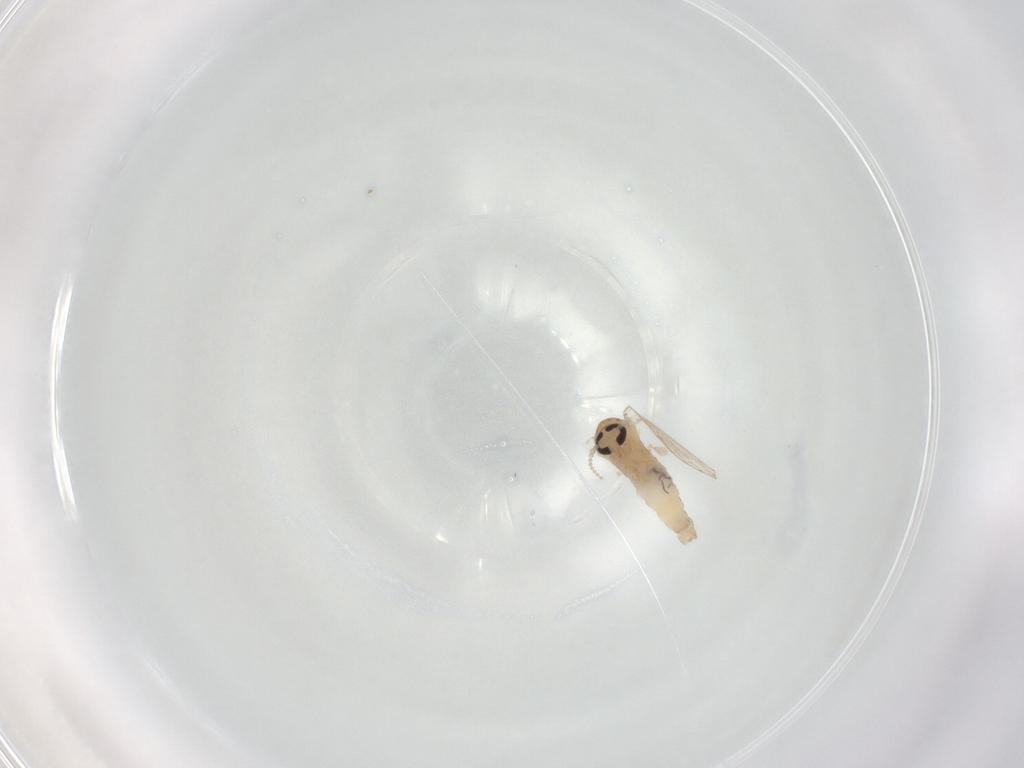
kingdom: Animalia
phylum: Arthropoda
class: Insecta
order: Diptera
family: Psychodidae
